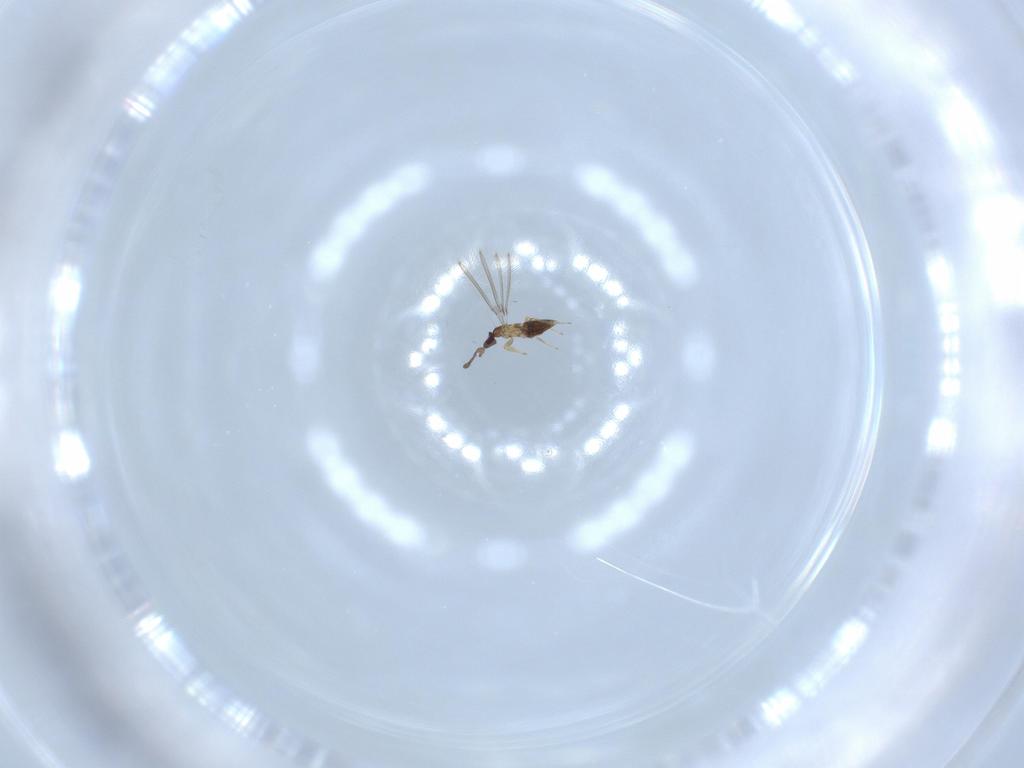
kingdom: Animalia
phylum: Arthropoda
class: Insecta
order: Hymenoptera
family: Mymaridae
